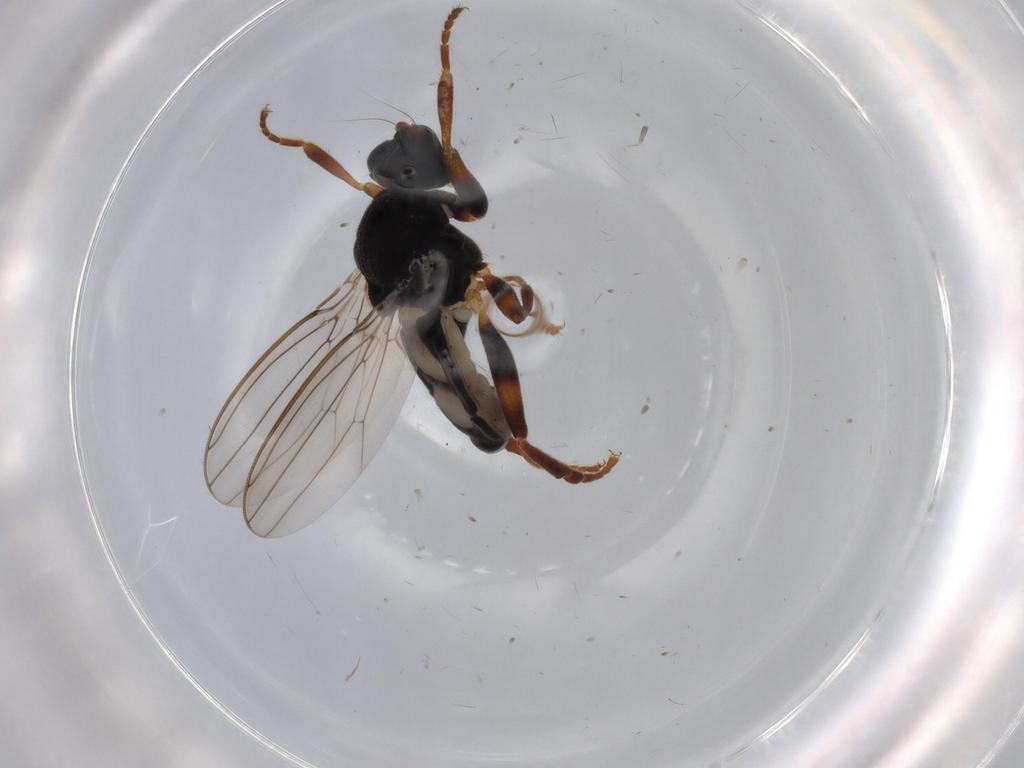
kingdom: Animalia
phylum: Arthropoda
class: Insecta
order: Diptera
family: Sphaeroceridae
